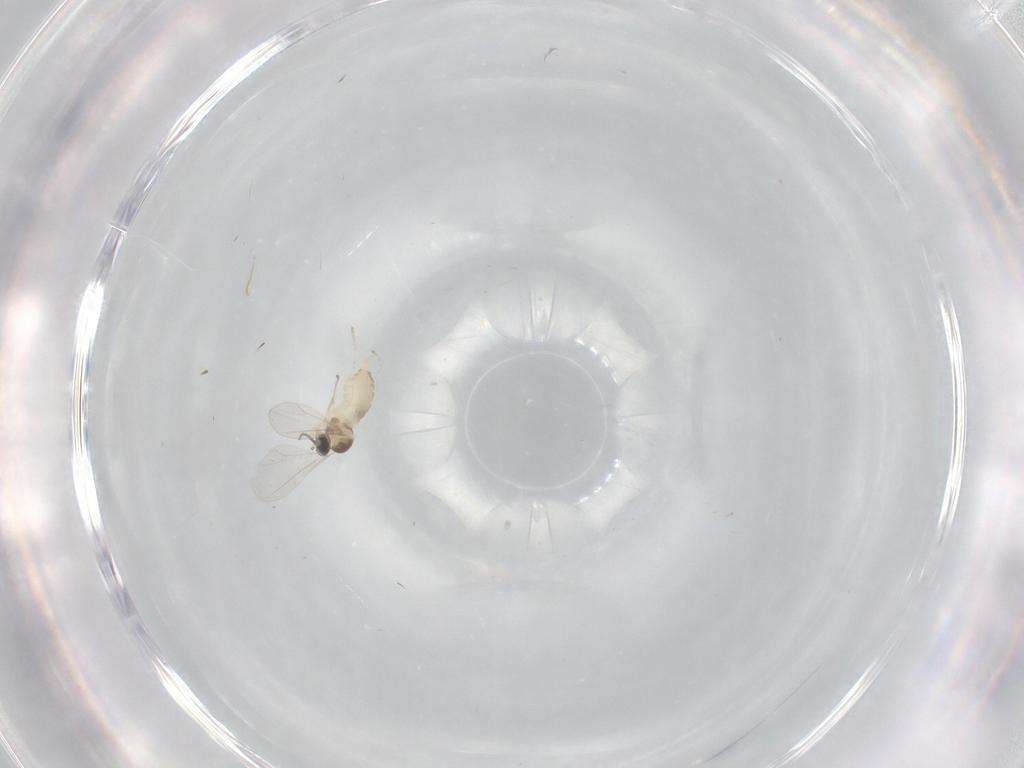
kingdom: Animalia
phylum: Arthropoda
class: Insecta
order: Diptera
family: Cecidomyiidae
